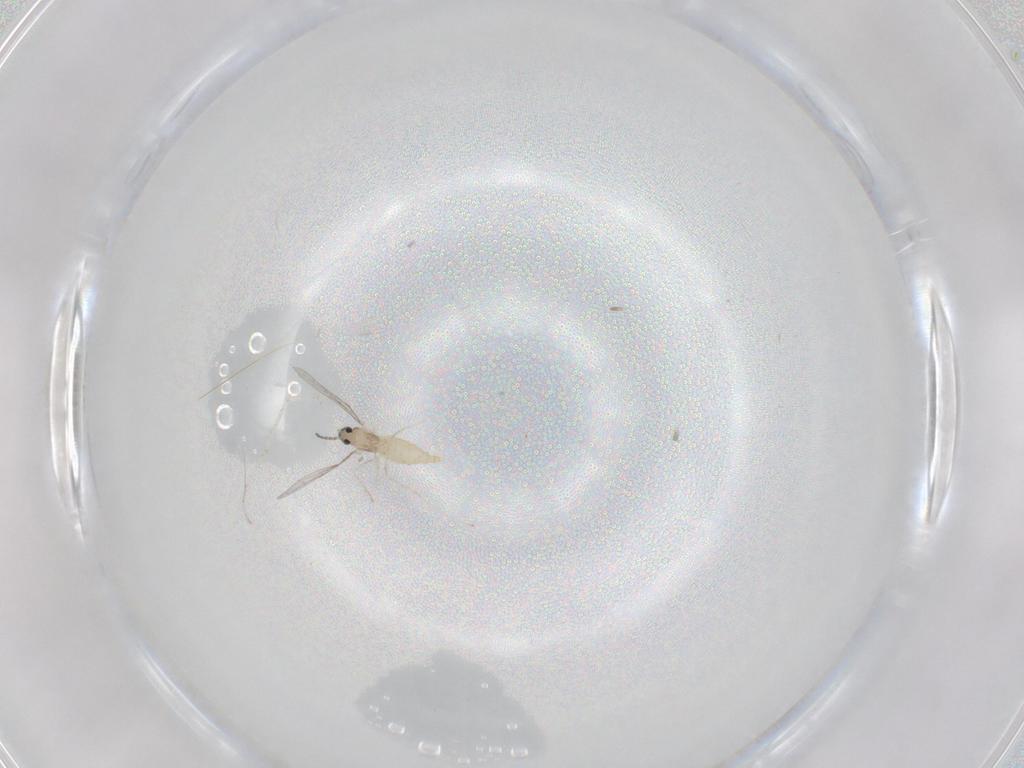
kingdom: Animalia
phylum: Arthropoda
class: Insecta
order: Diptera
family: Cecidomyiidae
